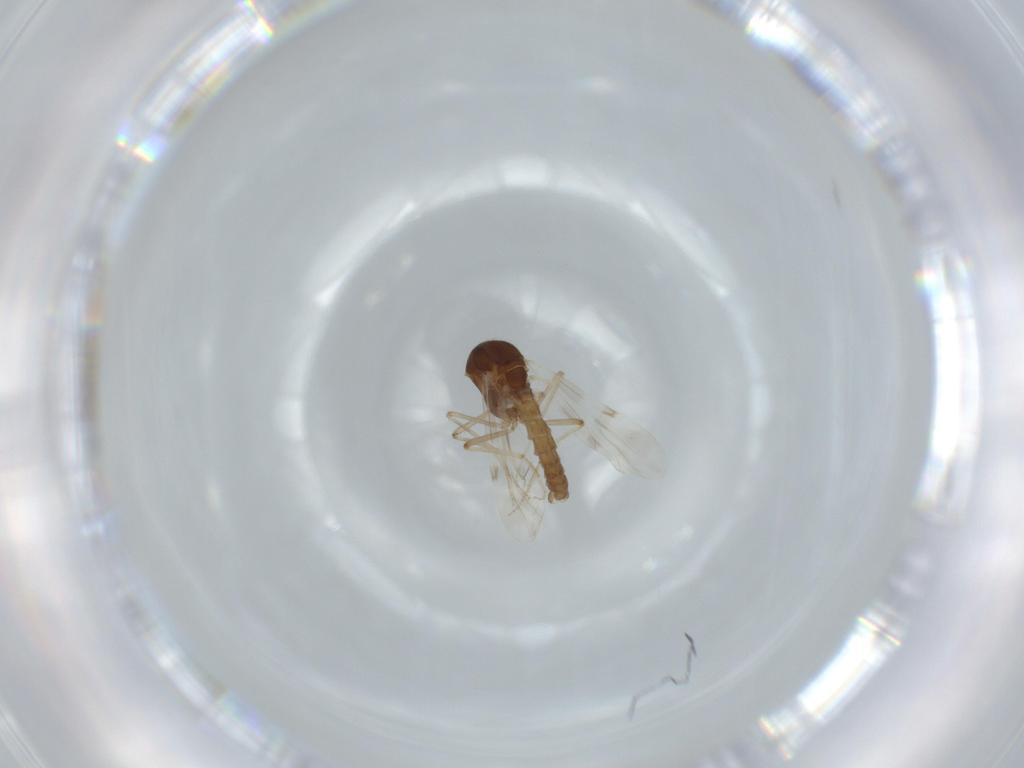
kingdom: Animalia
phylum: Arthropoda
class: Insecta
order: Diptera
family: Ceratopogonidae
